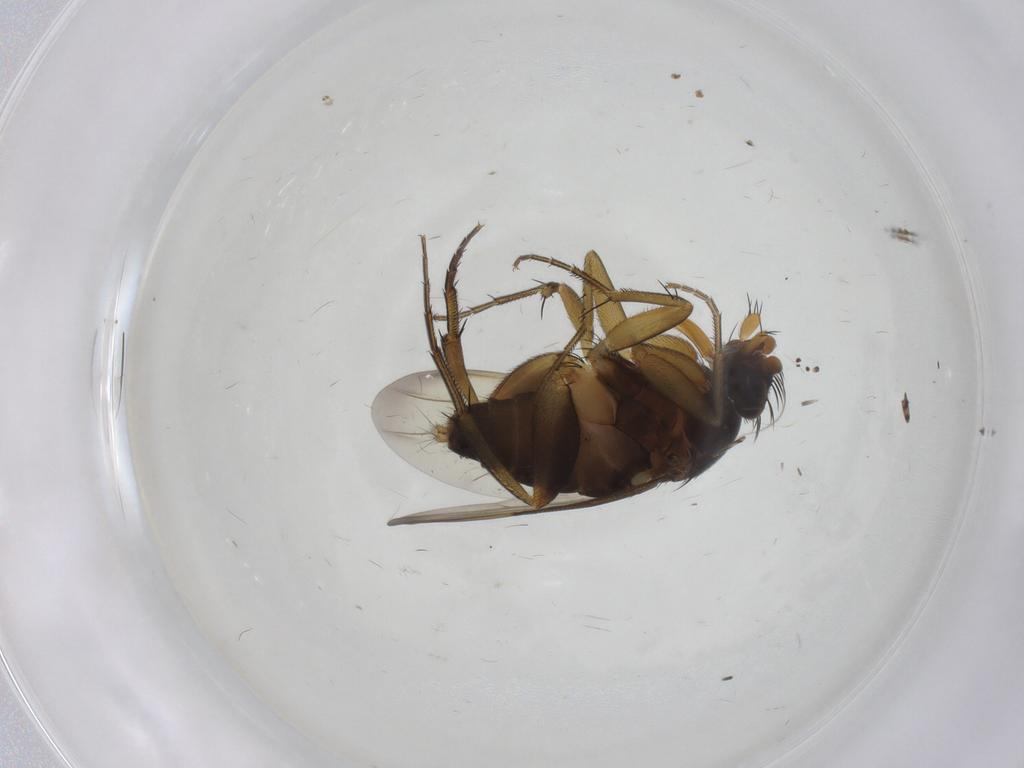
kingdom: Animalia
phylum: Arthropoda
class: Insecta
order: Diptera
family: Phoridae
